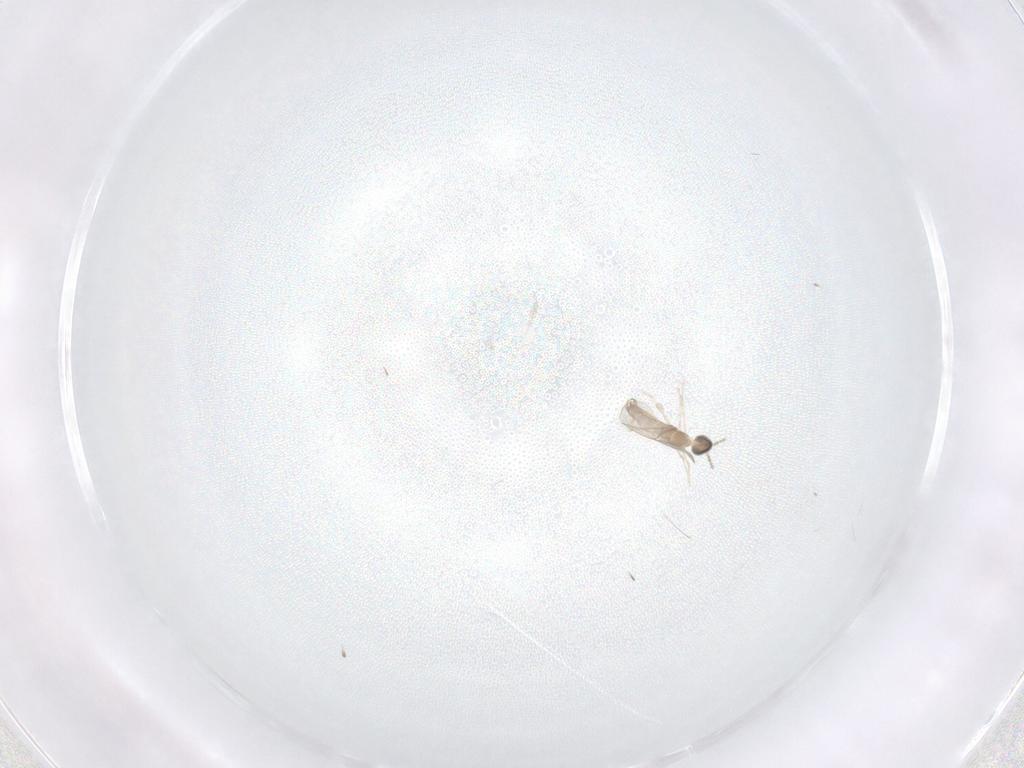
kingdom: Animalia
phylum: Arthropoda
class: Insecta
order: Diptera
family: Chironomidae
